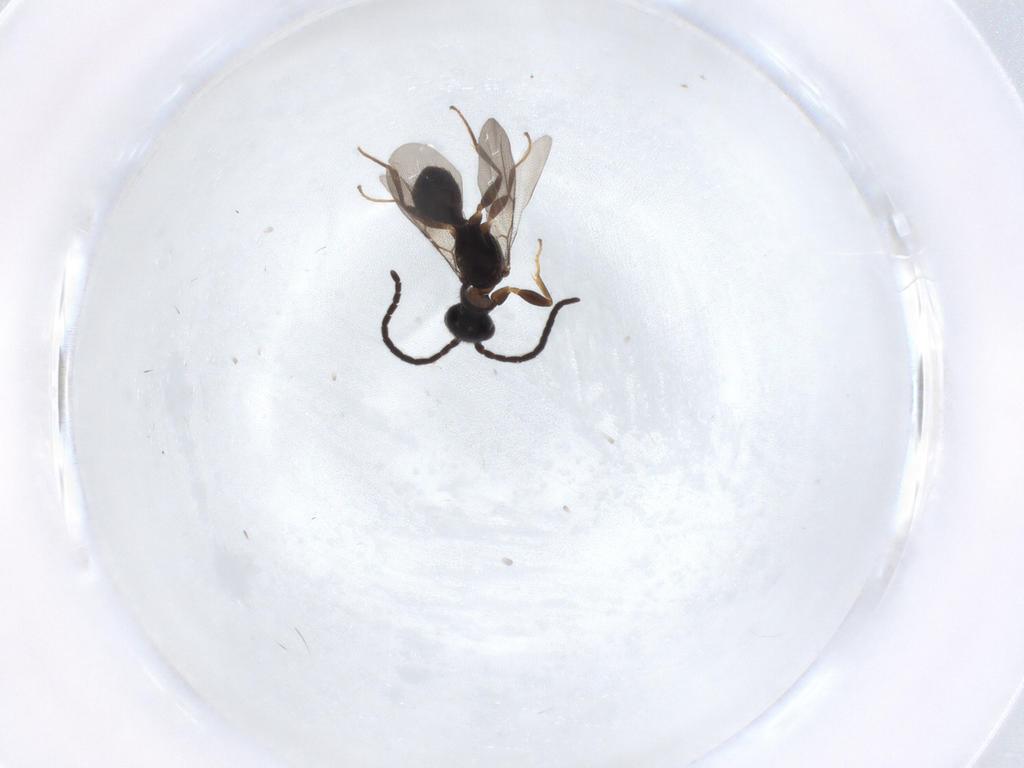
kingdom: Animalia
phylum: Arthropoda
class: Insecta
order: Hymenoptera
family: Bethylidae
